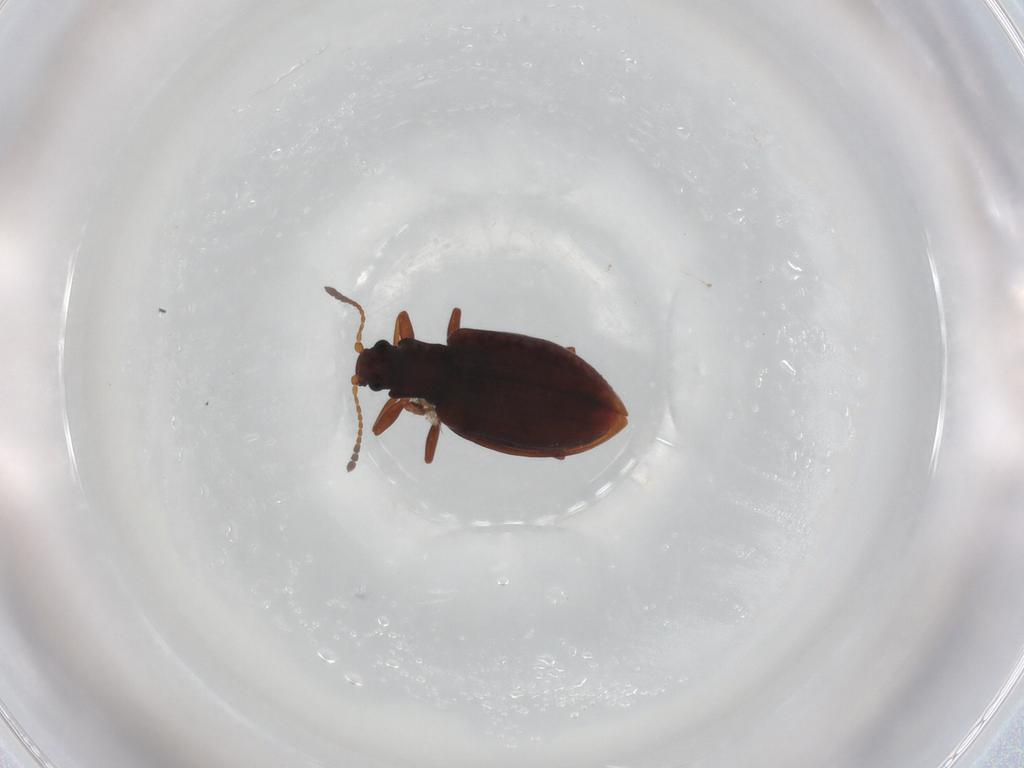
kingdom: Animalia
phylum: Arthropoda
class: Insecta
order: Coleoptera
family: Latridiidae
